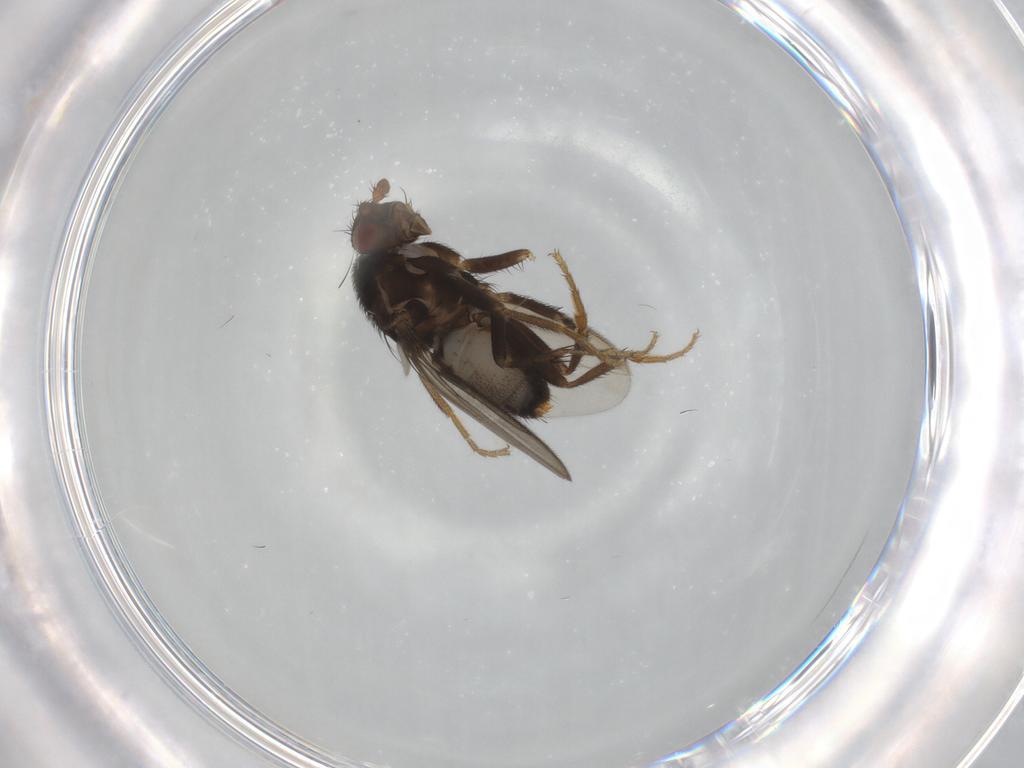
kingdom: Animalia
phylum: Arthropoda
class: Insecta
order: Diptera
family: Sphaeroceridae
